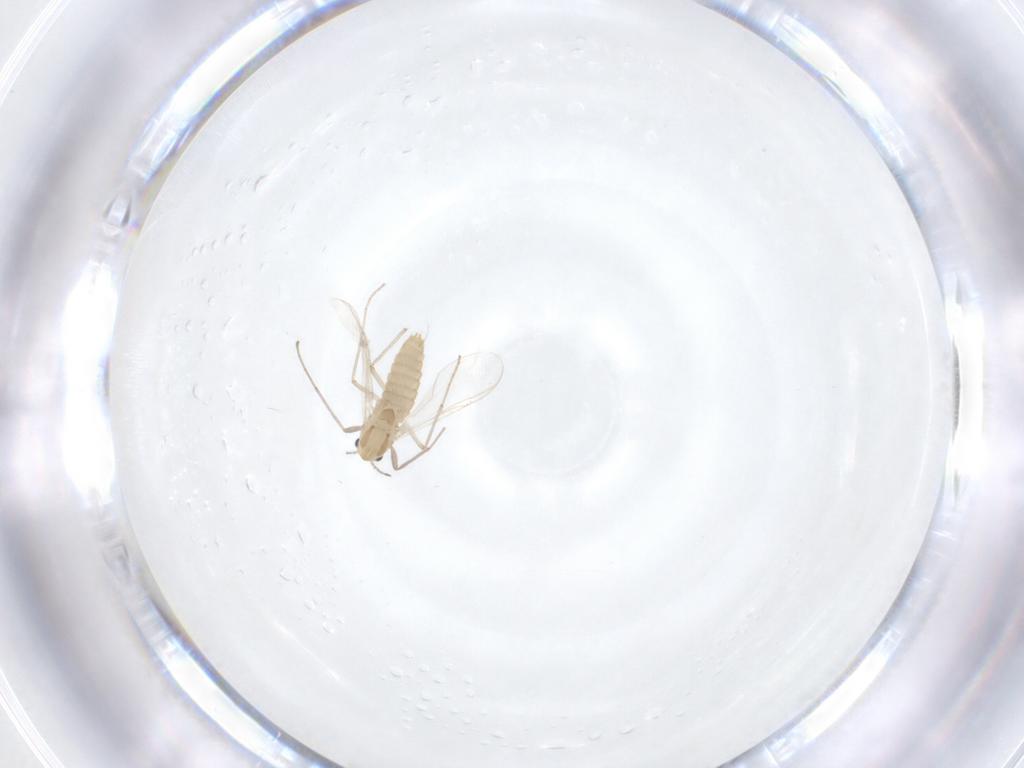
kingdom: Animalia
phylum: Arthropoda
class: Insecta
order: Diptera
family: Chironomidae
